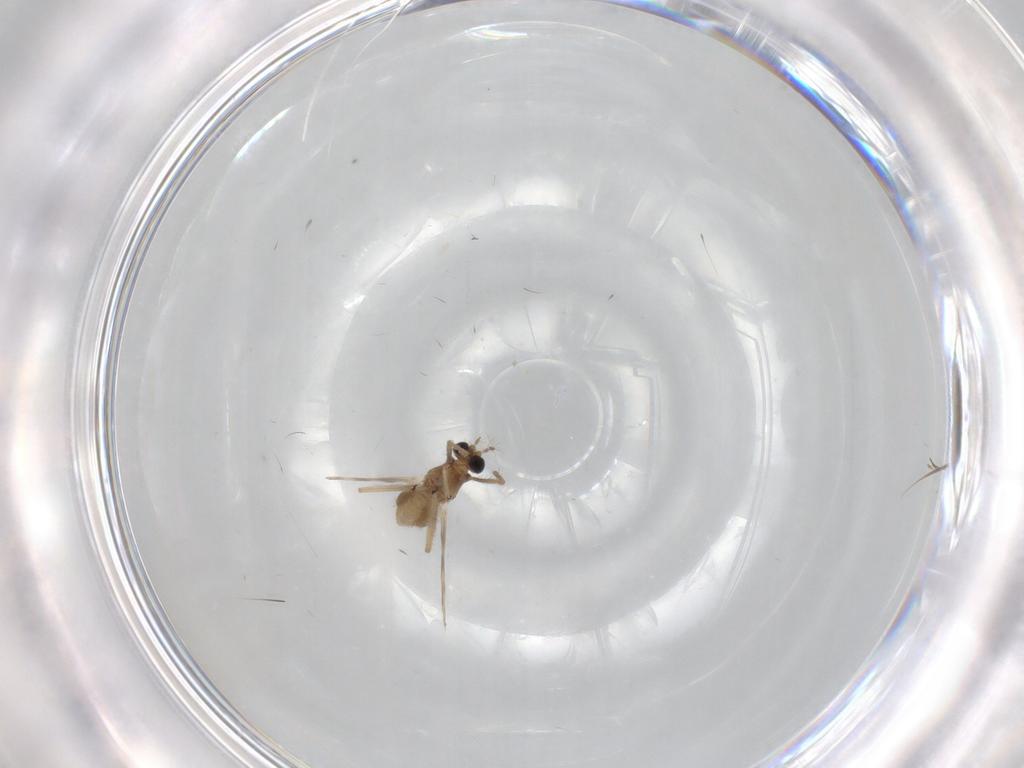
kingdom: Animalia
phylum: Arthropoda
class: Insecta
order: Diptera
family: Chironomidae
